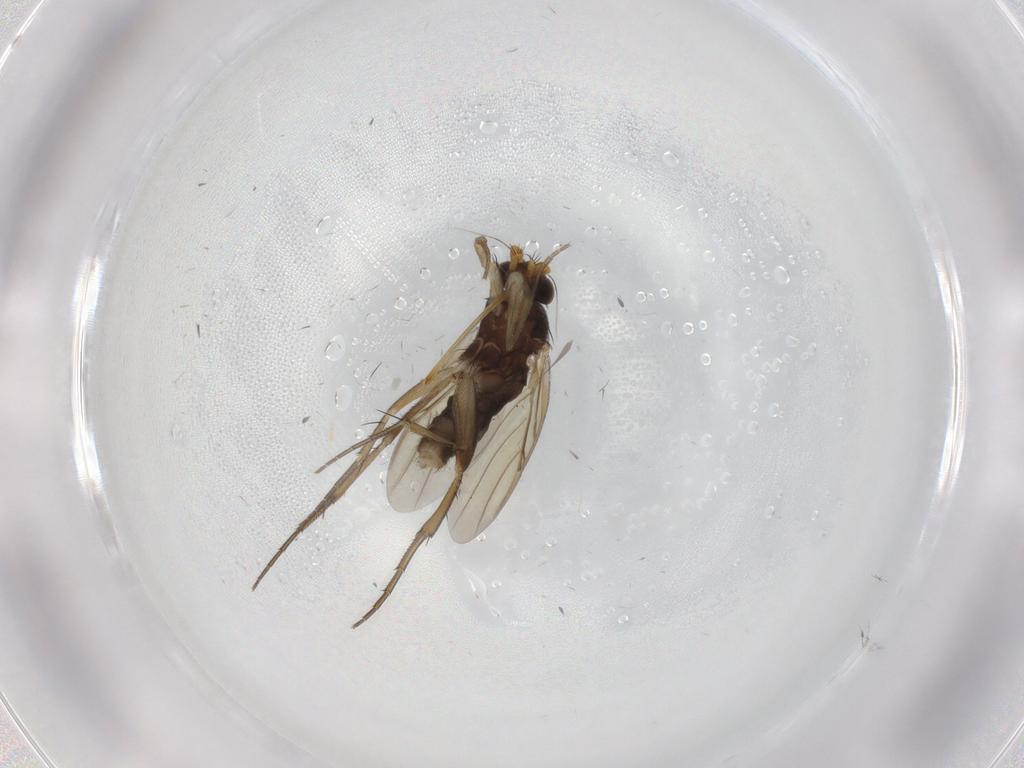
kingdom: Animalia
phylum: Arthropoda
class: Insecta
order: Diptera
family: Phoridae
